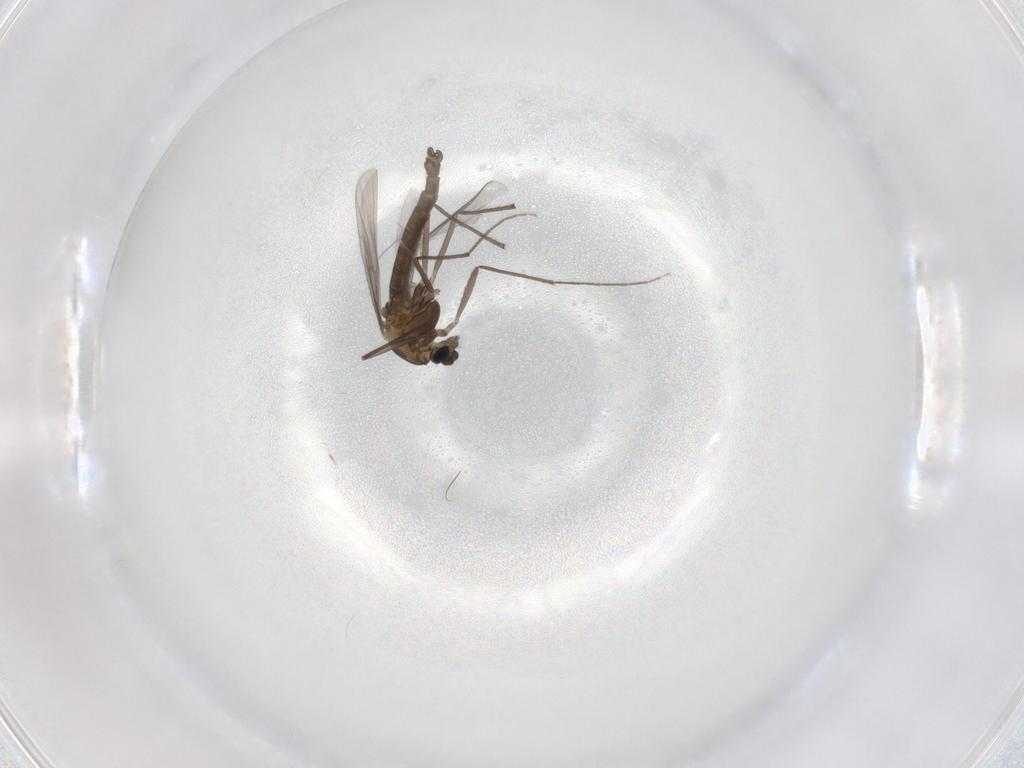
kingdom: Animalia
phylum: Arthropoda
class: Insecta
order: Diptera
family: Chironomidae
